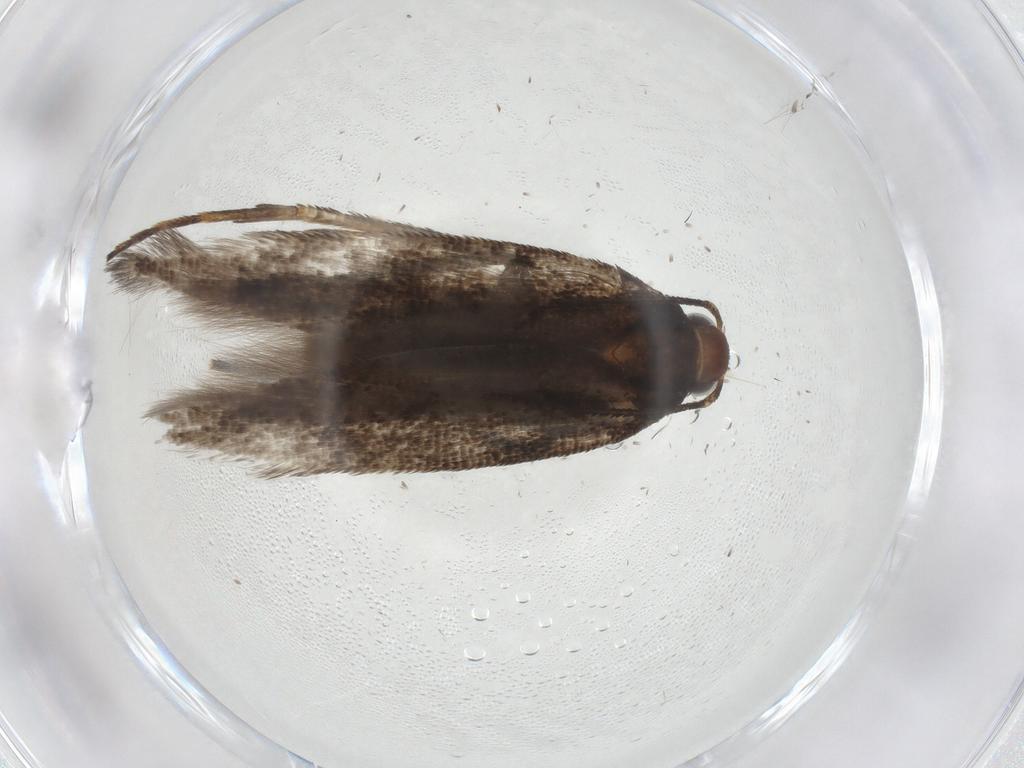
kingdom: Animalia
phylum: Arthropoda
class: Insecta
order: Lepidoptera
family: Gelechiidae
